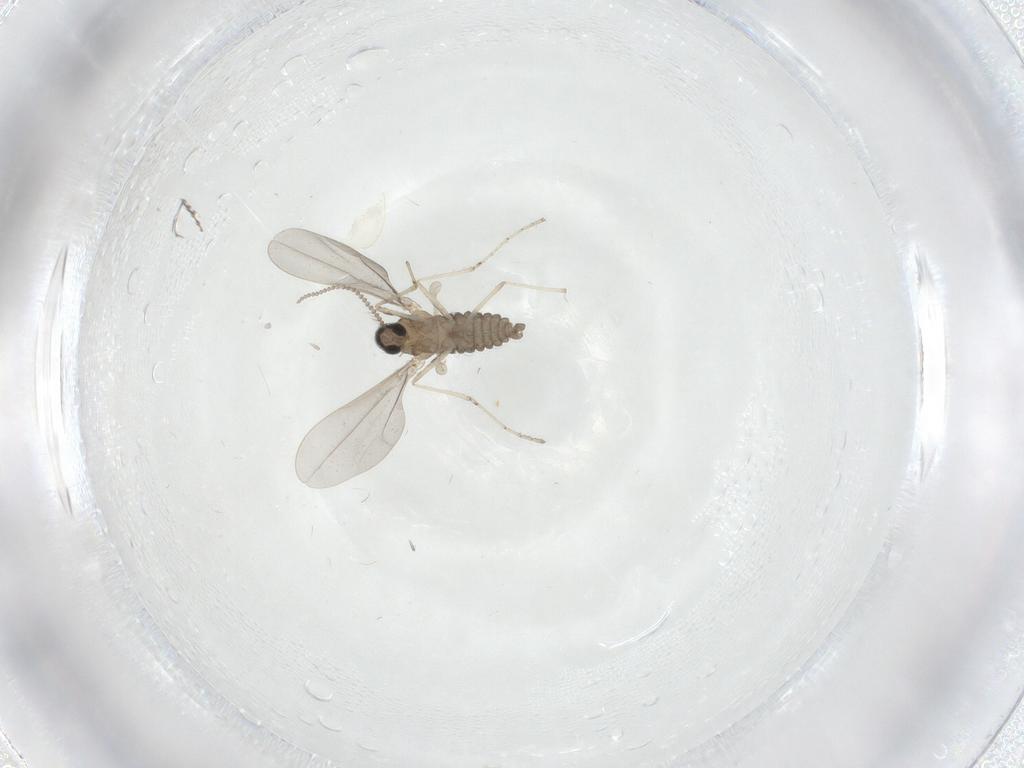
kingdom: Animalia
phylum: Arthropoda
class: Insecta
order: Diptera
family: Cecidomyiidae
